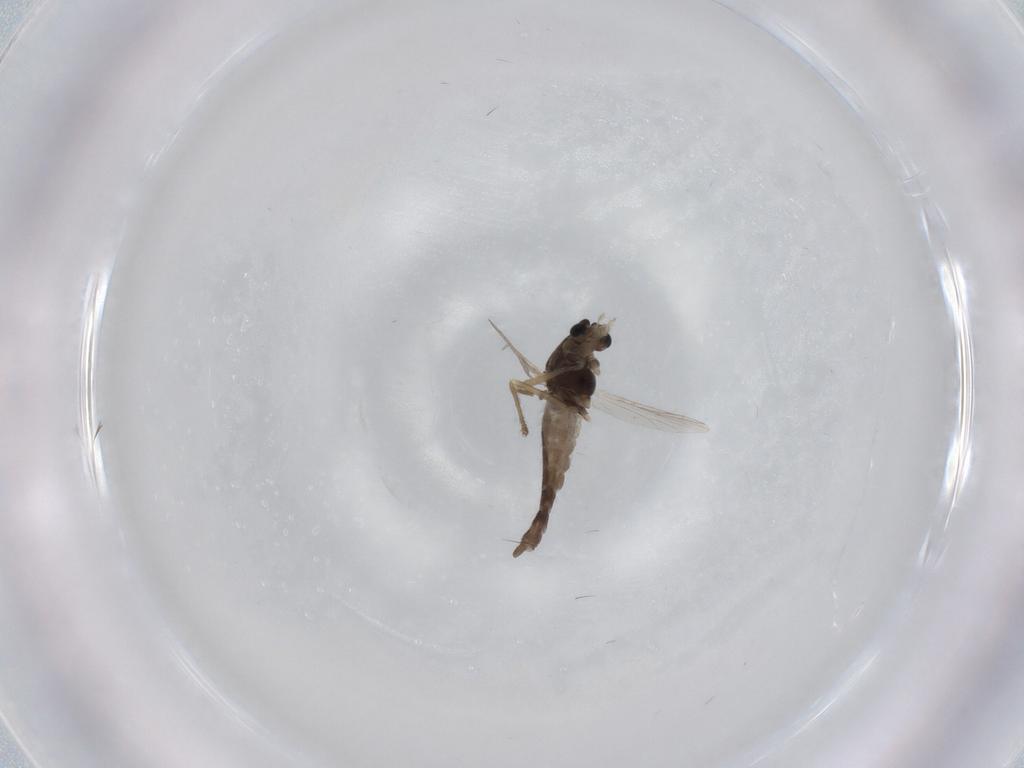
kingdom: Animalia
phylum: Arthropoda
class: Insecta
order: Diptera
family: Chironomidae
